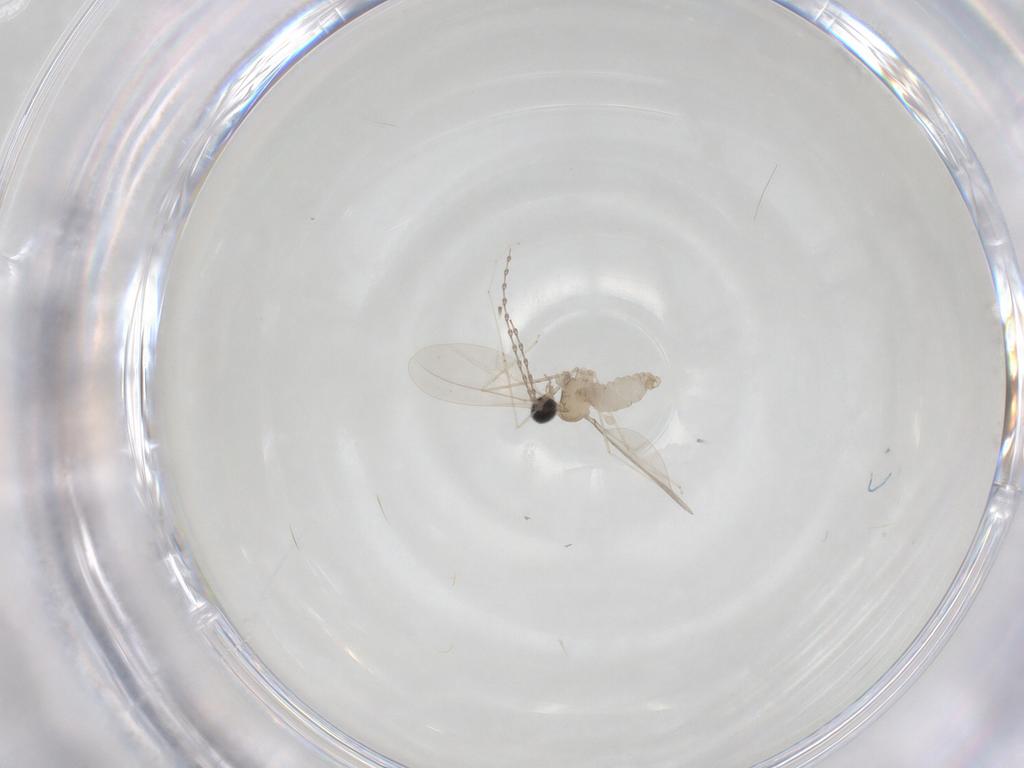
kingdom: Animalia
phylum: Arthropoda
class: Insecta
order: Diptera
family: Cecidomyiidae
